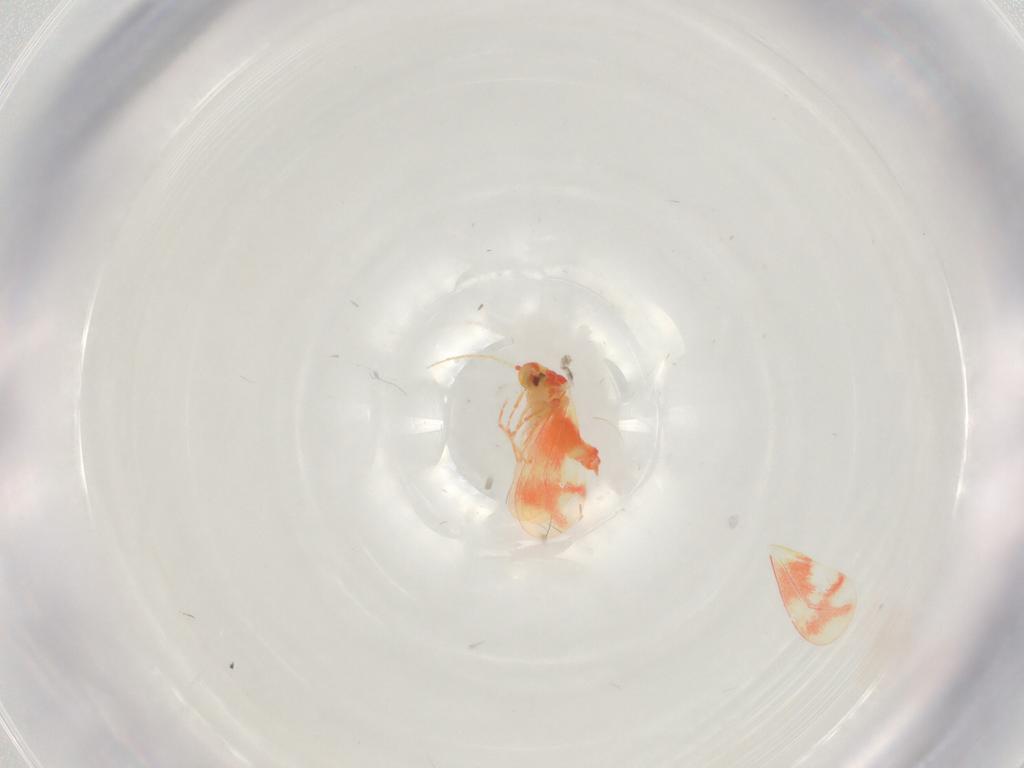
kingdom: Animalia
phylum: Arthropoda
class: Insecta
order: Hemiptera
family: Aleyrodidae
